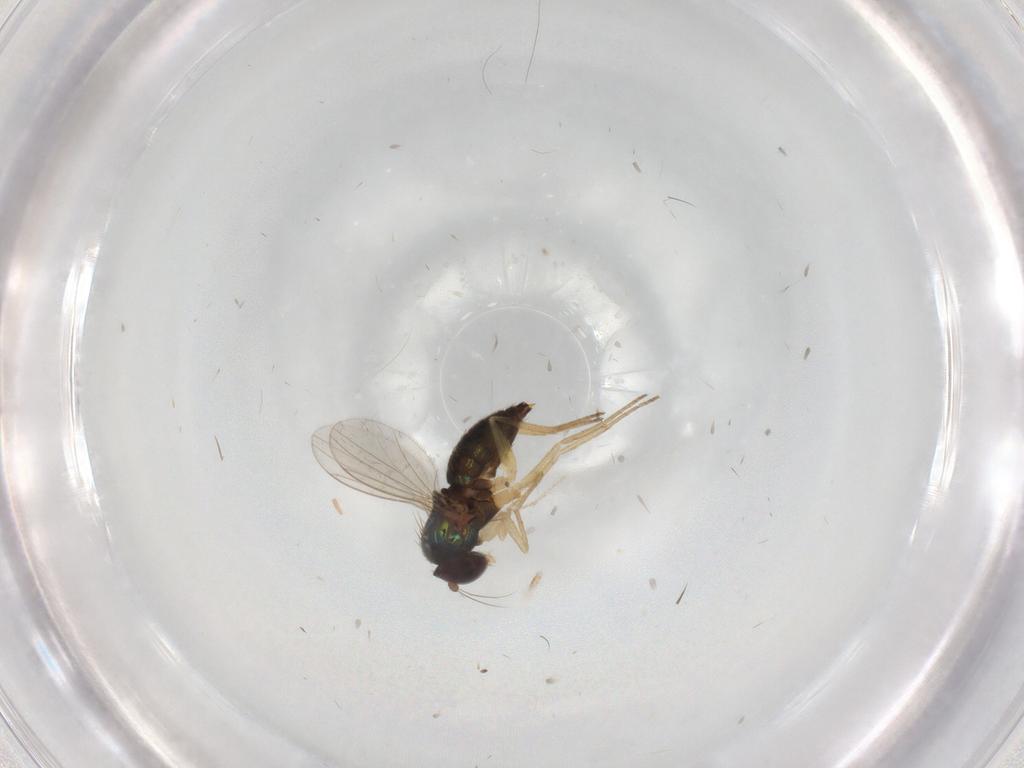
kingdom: Animalia
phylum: Arthropoda
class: Insecta
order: Diptera
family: Dolichopodidae
